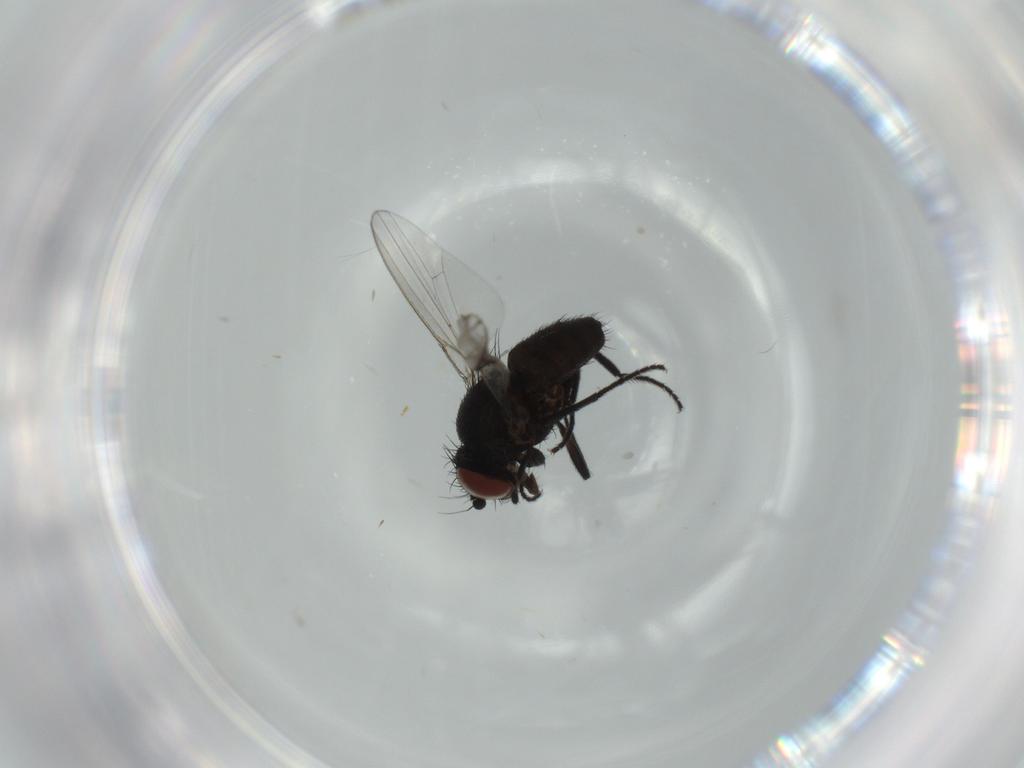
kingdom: Animalia
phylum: Arthropoda
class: Insecta
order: Diptera
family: Milichiidae
